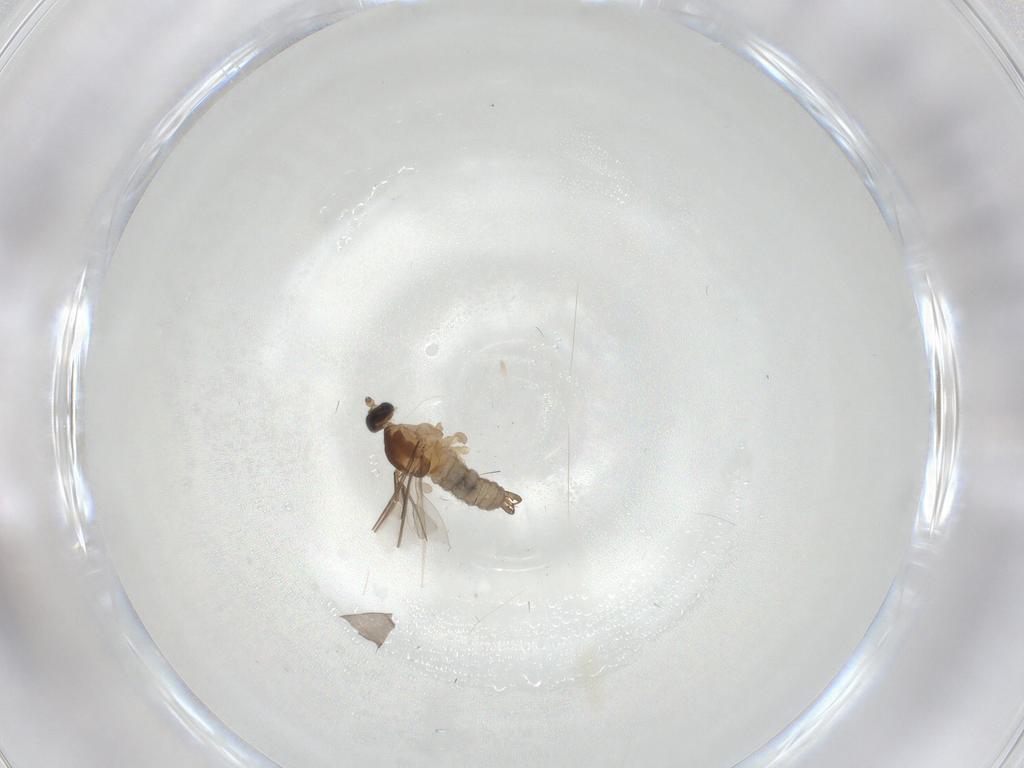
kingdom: Animalia
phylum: Arthropoda
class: Insecta
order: Diptera
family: Cecidomyiidae
